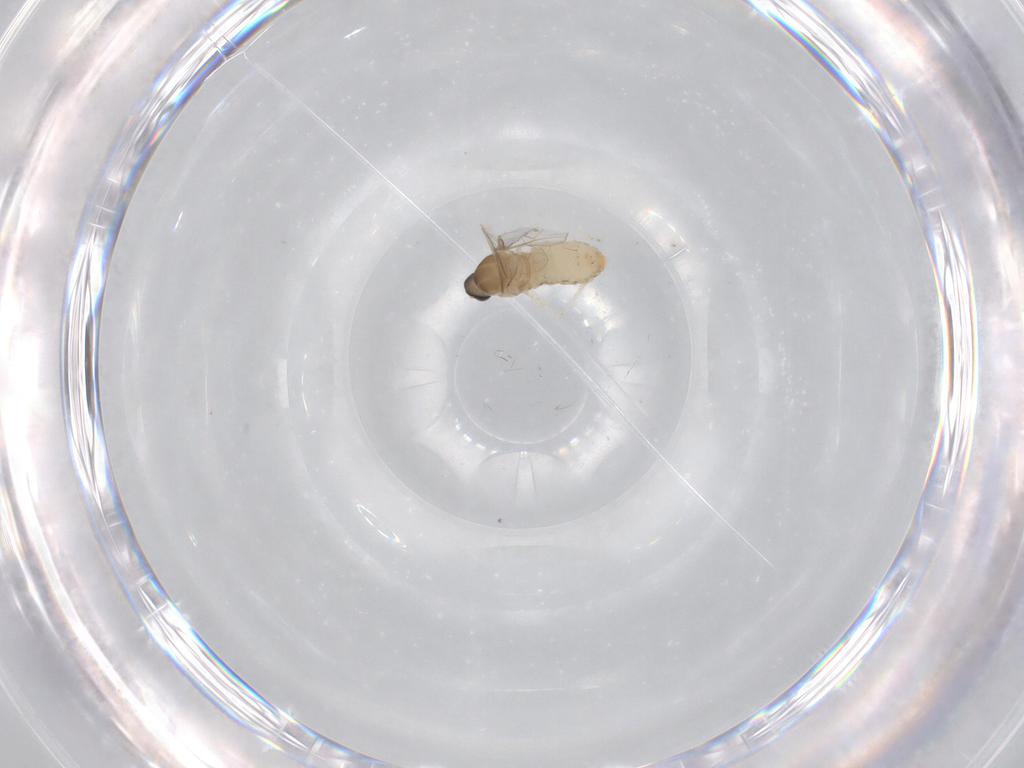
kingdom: Animalia
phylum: Arthropoda
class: Insecta
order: Diptera
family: Cecidomyiidae
